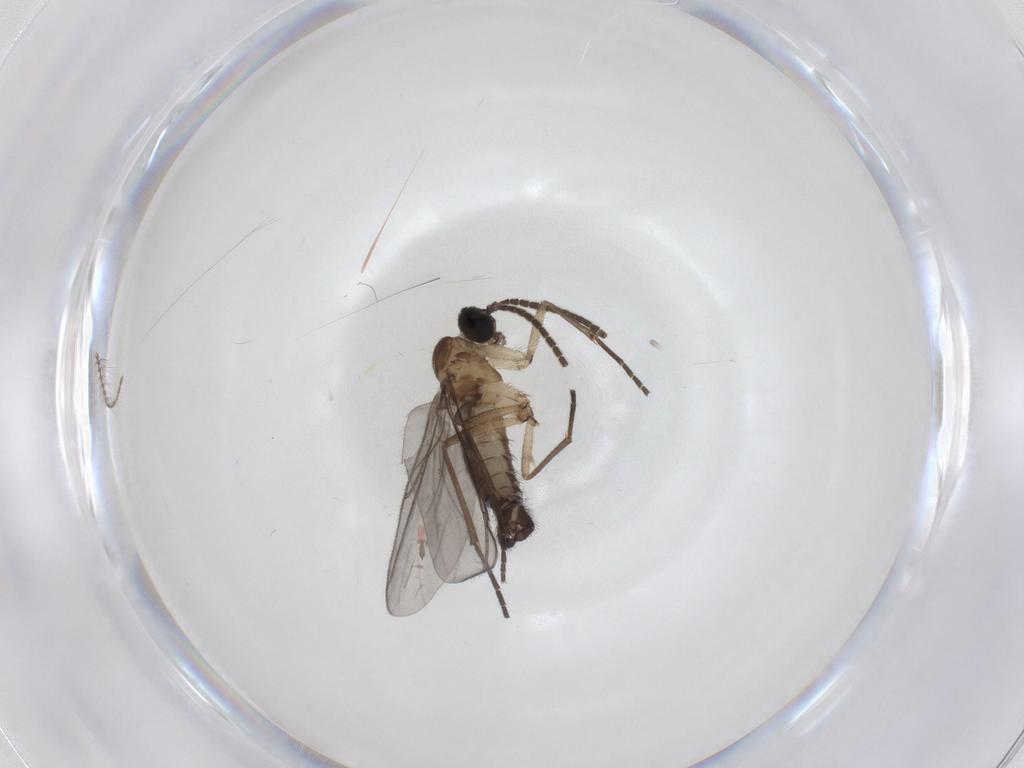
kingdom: Animalia
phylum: Arthropoda
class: Insecta
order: Diptera
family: Sciaridae
